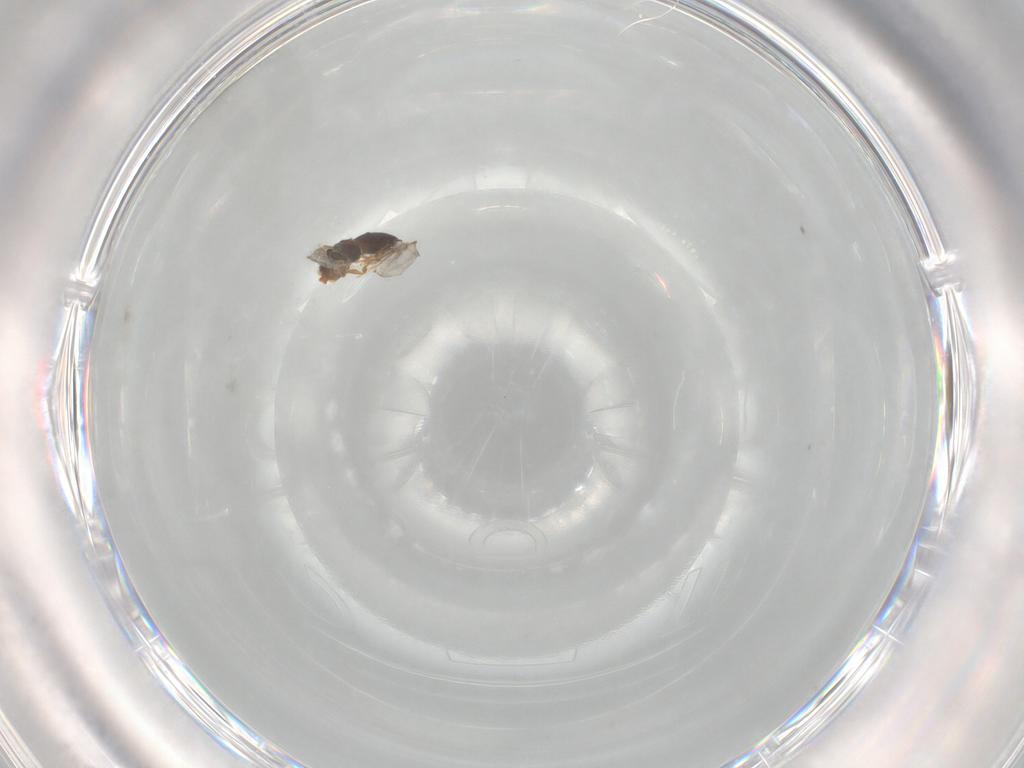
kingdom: Animalia
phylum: Arthropoda
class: Insecta
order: Hymenoptera
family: Diapriidae
